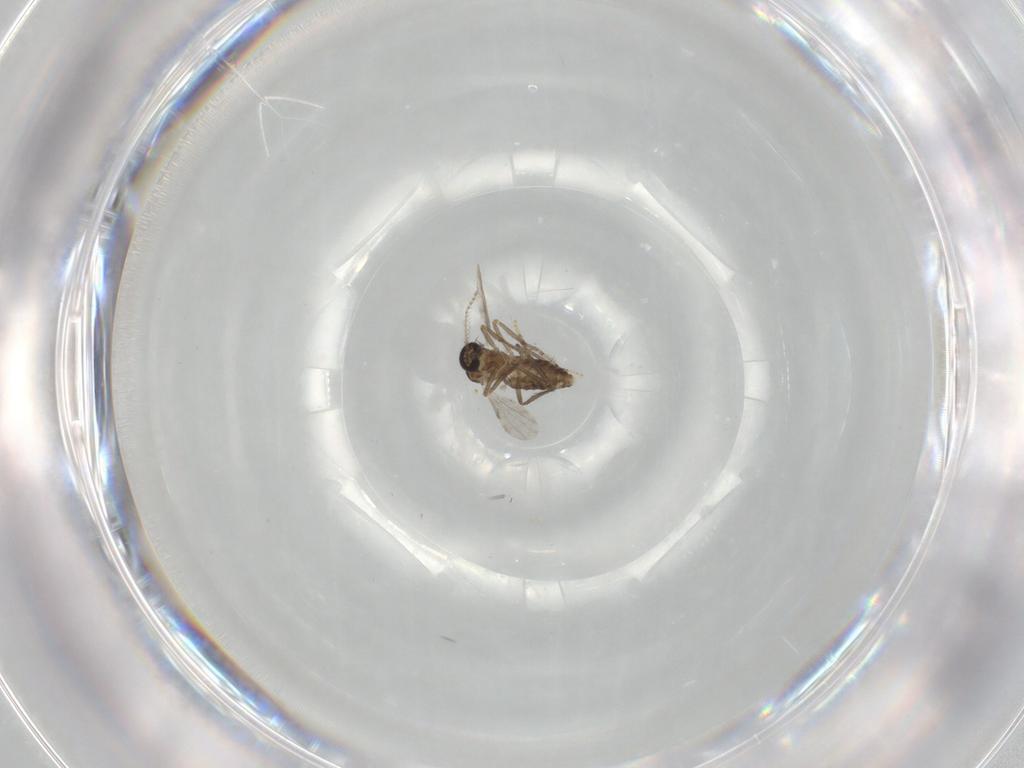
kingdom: Animalia
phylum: Arthropoda
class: Insecta
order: Diptera
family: Ceratopogonidae
